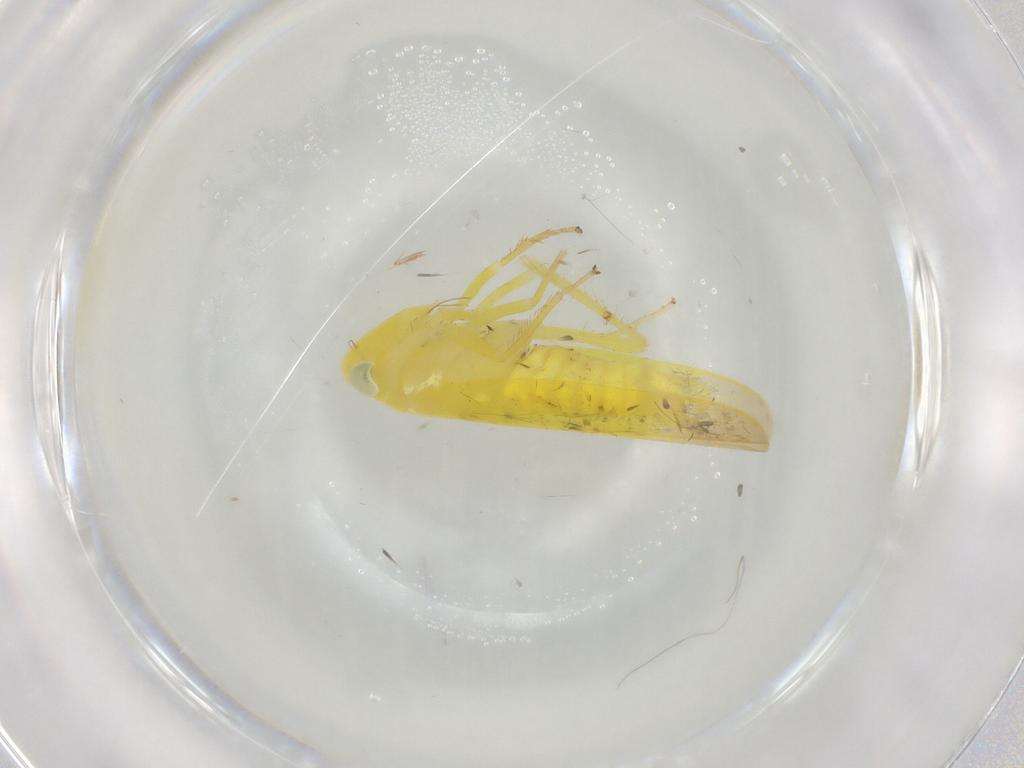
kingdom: Animalia
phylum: Arthropoda
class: Insecta
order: Hemiptera
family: Cicadellidae
